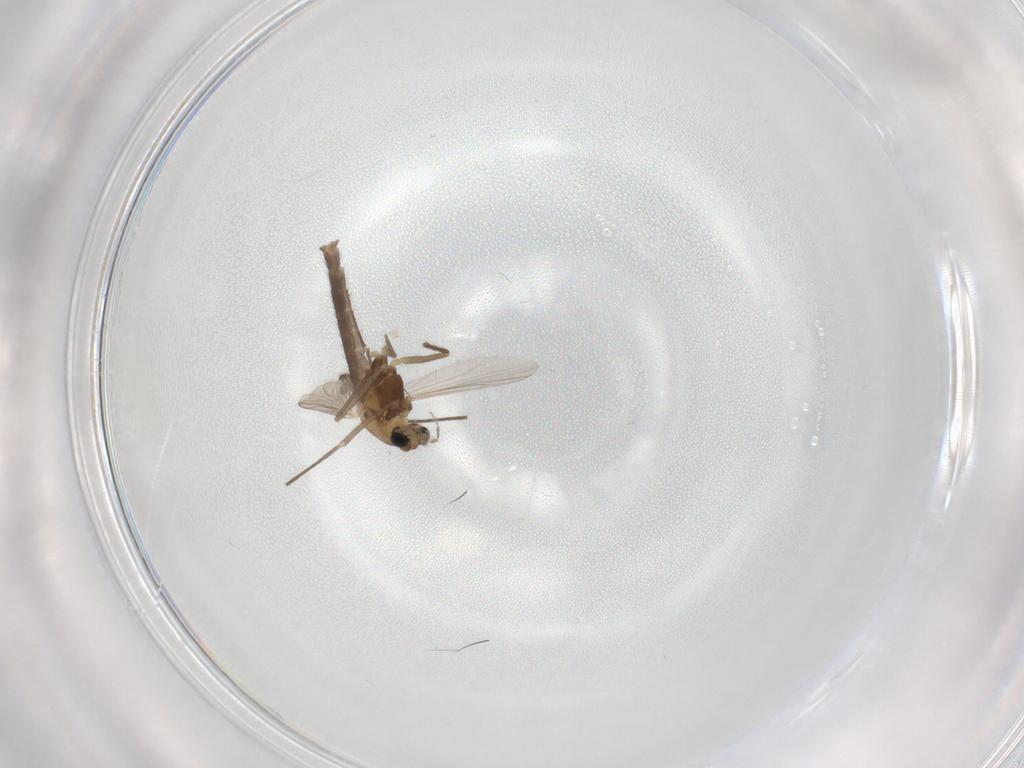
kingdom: Animalia
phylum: Arthropoda
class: Insecta
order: Diptera
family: Chironomidae
